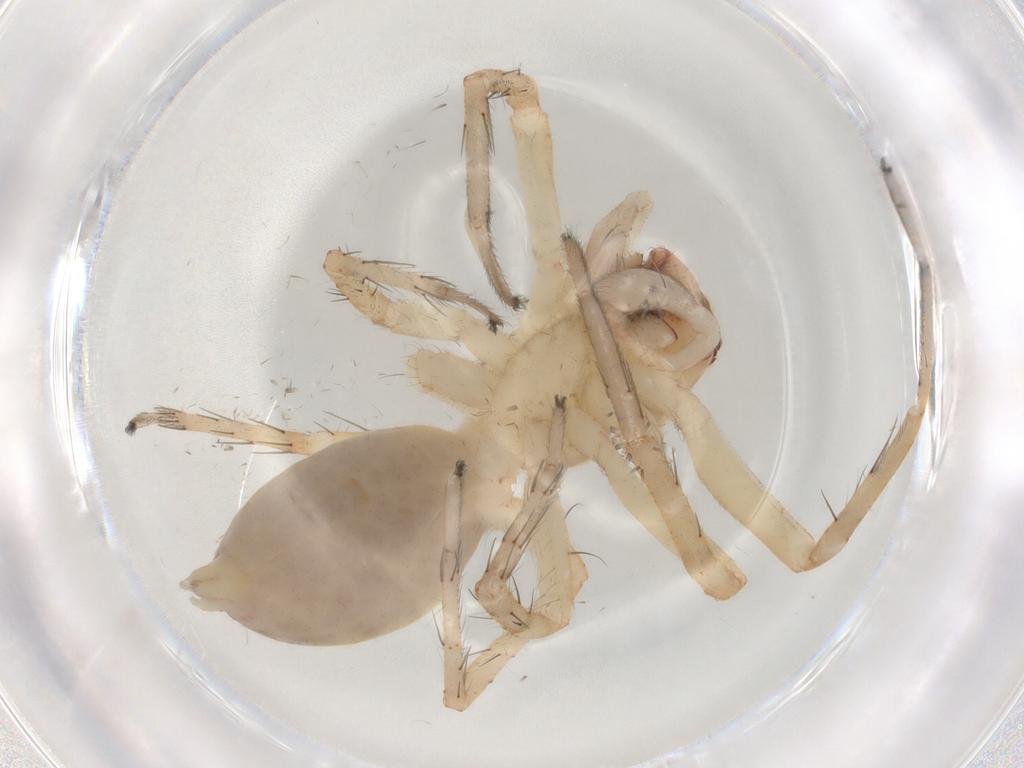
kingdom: Animalia
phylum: Arthropoda
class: Arachnida
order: Araneae
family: Anyphaenidae
